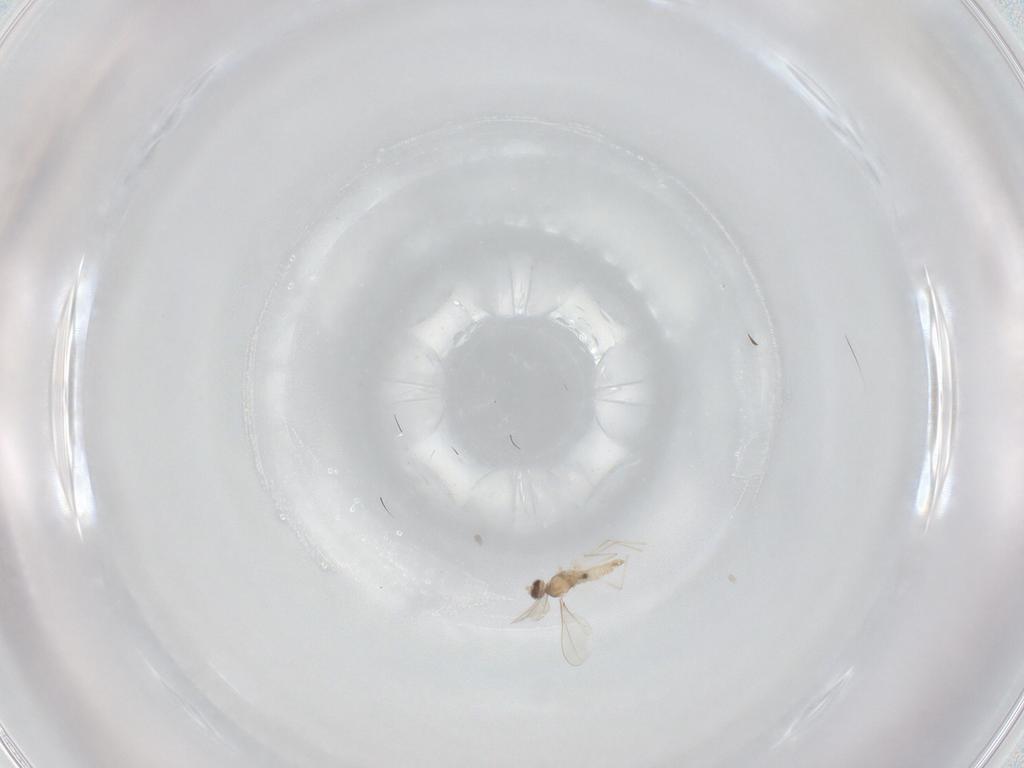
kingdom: Animalia
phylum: Arthropoda
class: Insecta
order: Diptera
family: Cecidomyiidae
